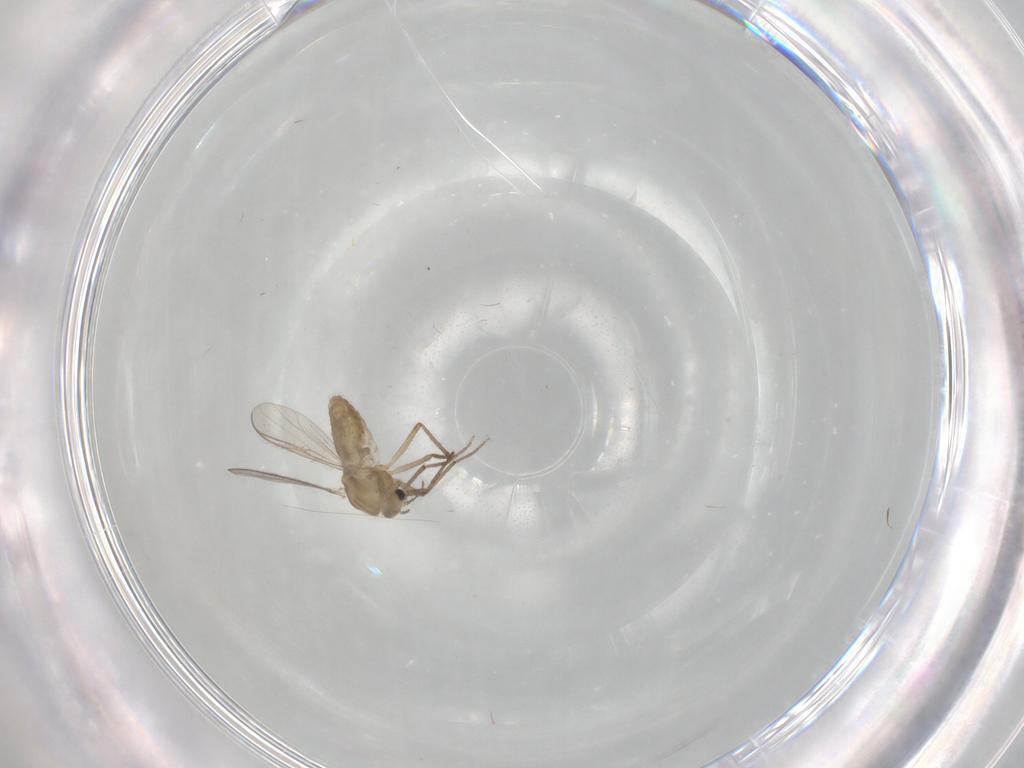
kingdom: Animalia
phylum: Arthropoda
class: Insecta
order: Diptera
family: Chironomidae
